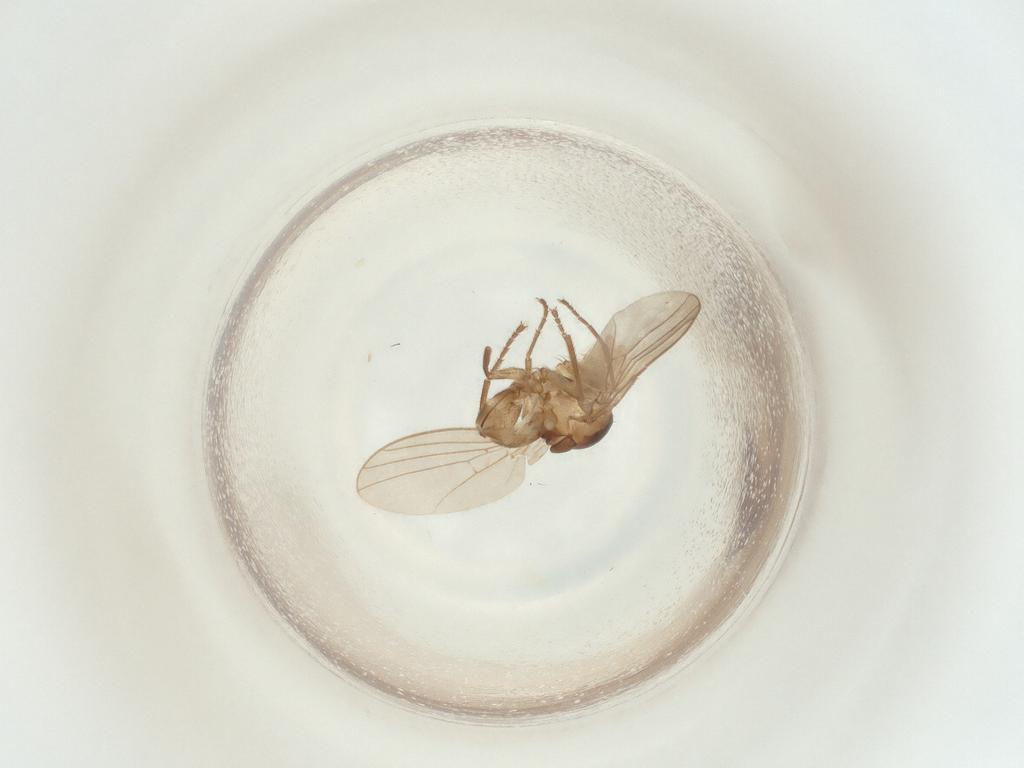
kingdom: Animalia
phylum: Arthropoda
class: Insecta
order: Diptera
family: Agromyzidae
